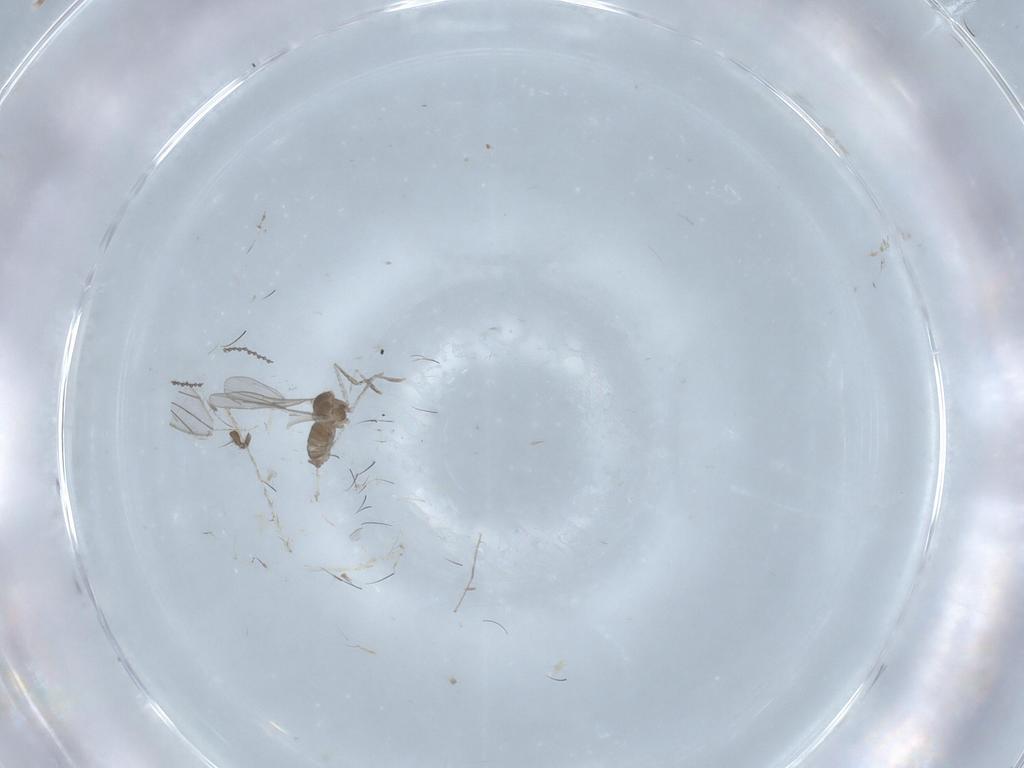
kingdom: Animalia
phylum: Arthropoda
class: Insecta
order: Diptera
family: Cecidomyiidae
